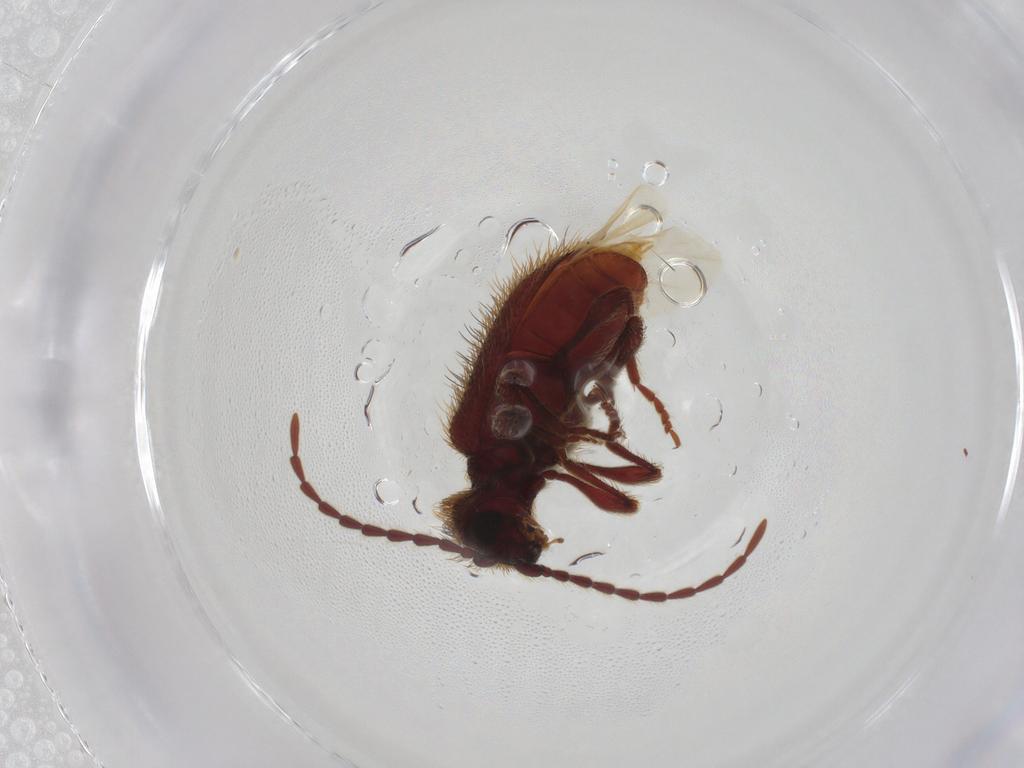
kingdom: Animalia
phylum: Arthropoda
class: Insecta
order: Coleoptera
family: Ptinidae
